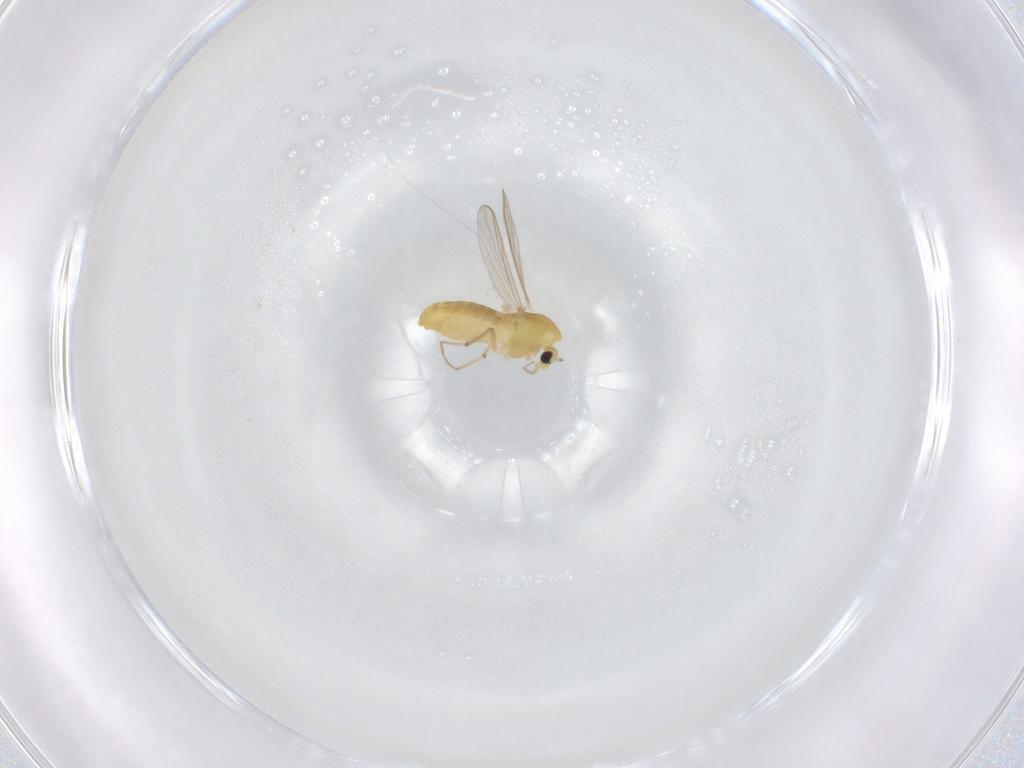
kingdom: Animalia
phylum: Arthropoda
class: Insecta
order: Diptera
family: Chironomidae
